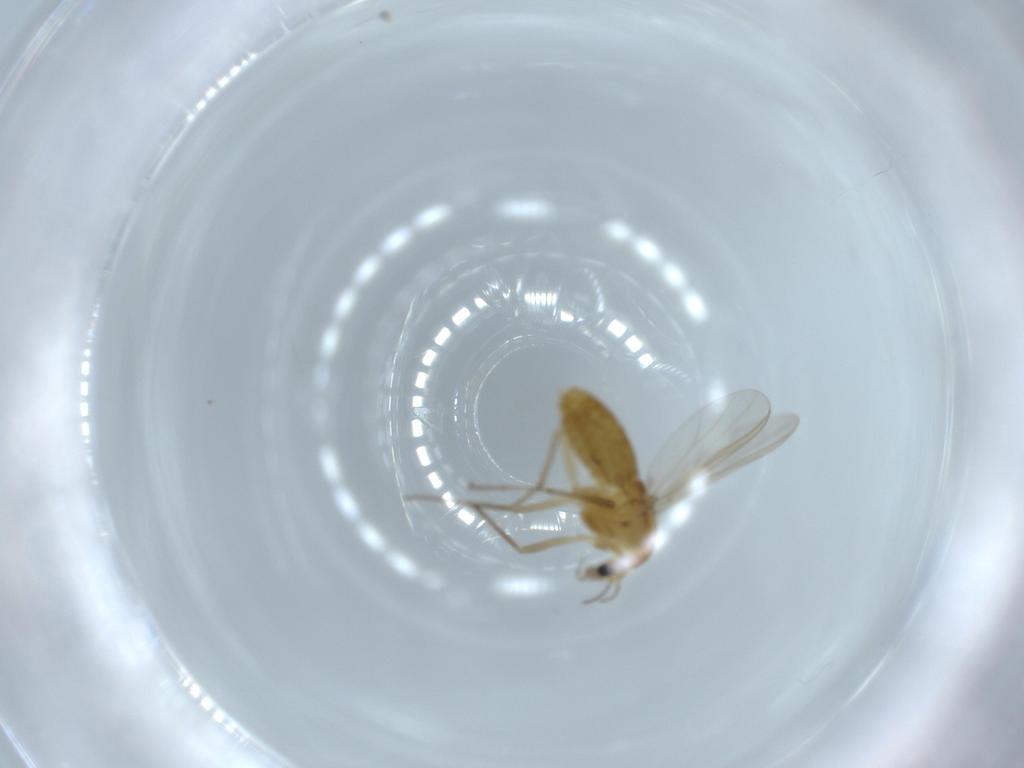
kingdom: Animalia
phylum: Arthropoda
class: Insecta
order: Diptera
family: Chironomidae
